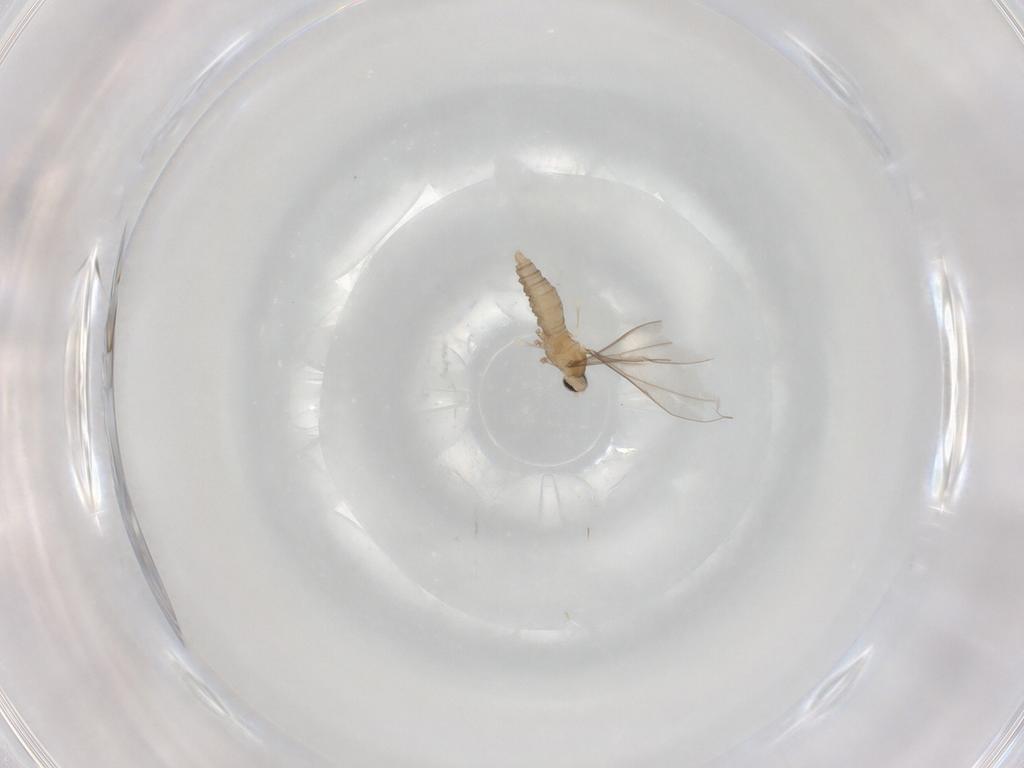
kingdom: Animalia
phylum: Arthropoda
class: Insecta
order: Diptera
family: Cecidomyiidae
